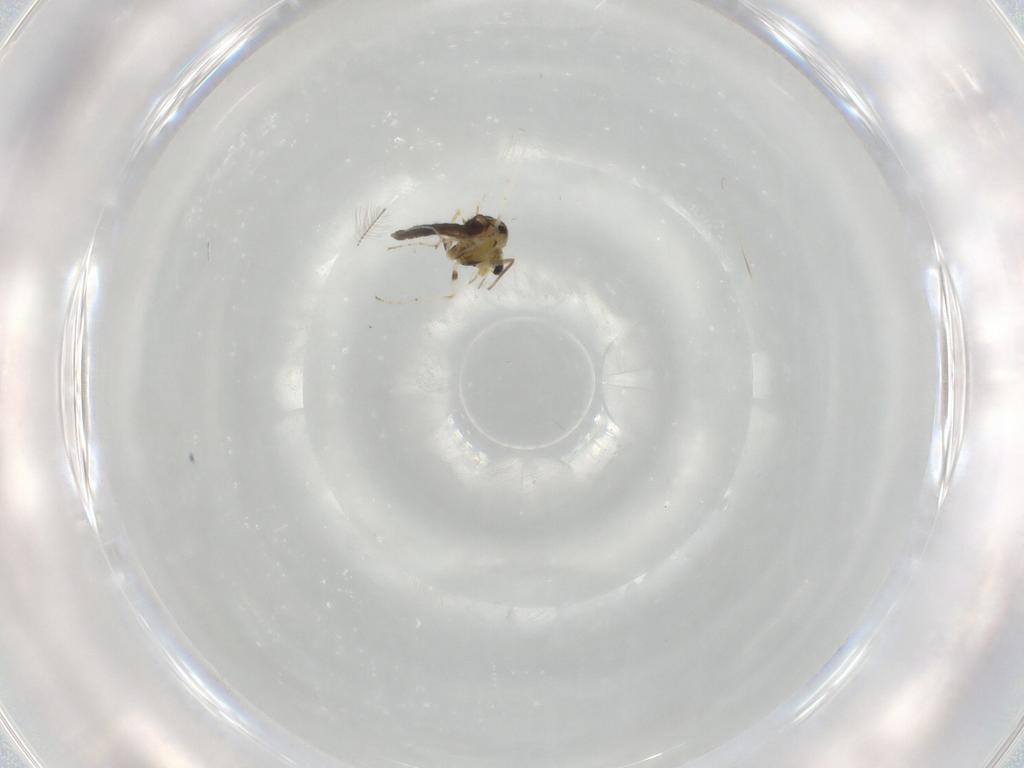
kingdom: Animalia
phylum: Arthropoda
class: Insecta
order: Diptera
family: Chironomidae
